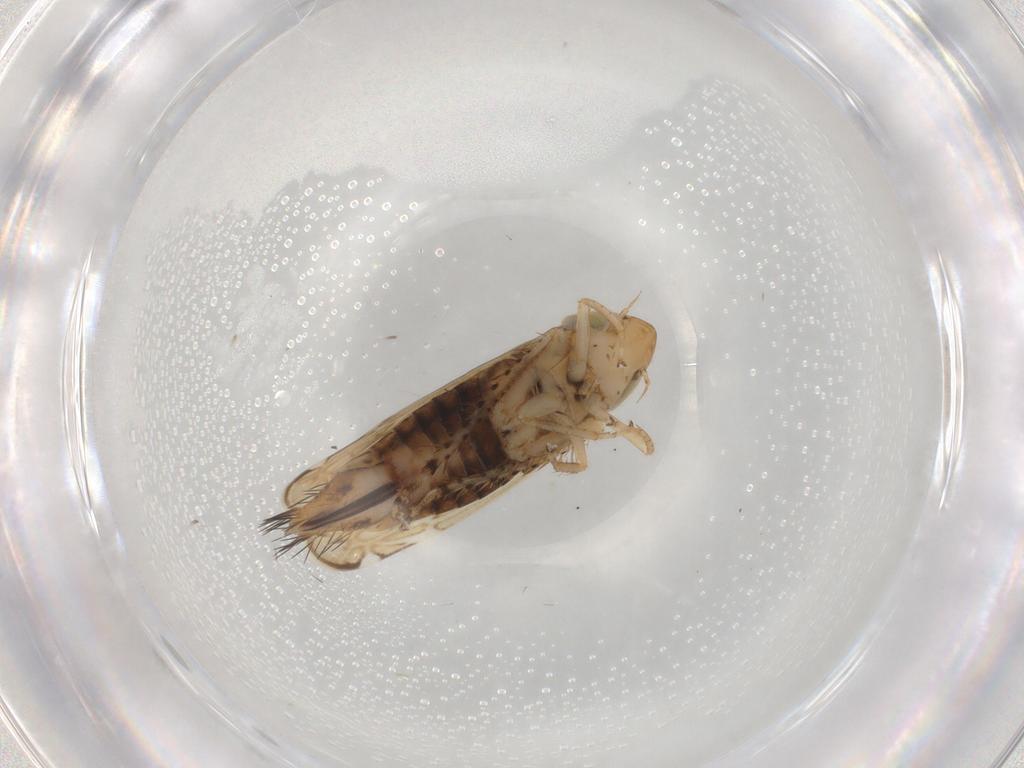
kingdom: Animalia
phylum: Arthropoda
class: Insecta
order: Hemiptera
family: Cicadellidae
